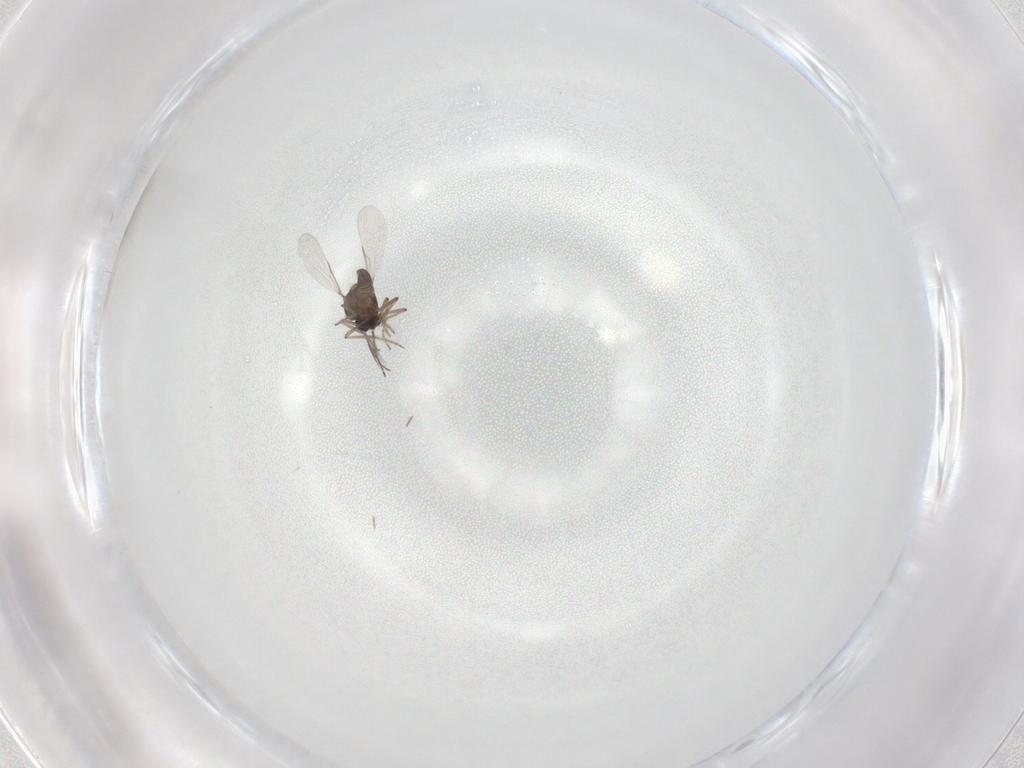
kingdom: Animalia
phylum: Arthropoda
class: Insecta
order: Diptera
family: Ceratopogonidae
